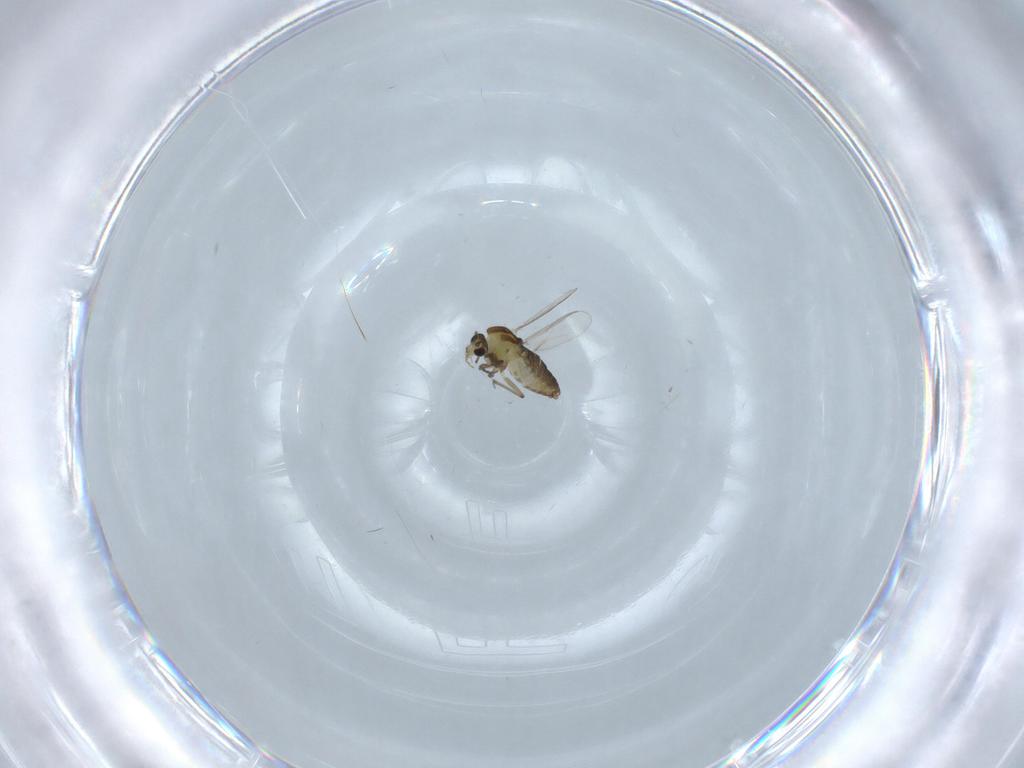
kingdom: Animalia
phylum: Arthropoda
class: Insecta
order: Diptera
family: Chironomidae
